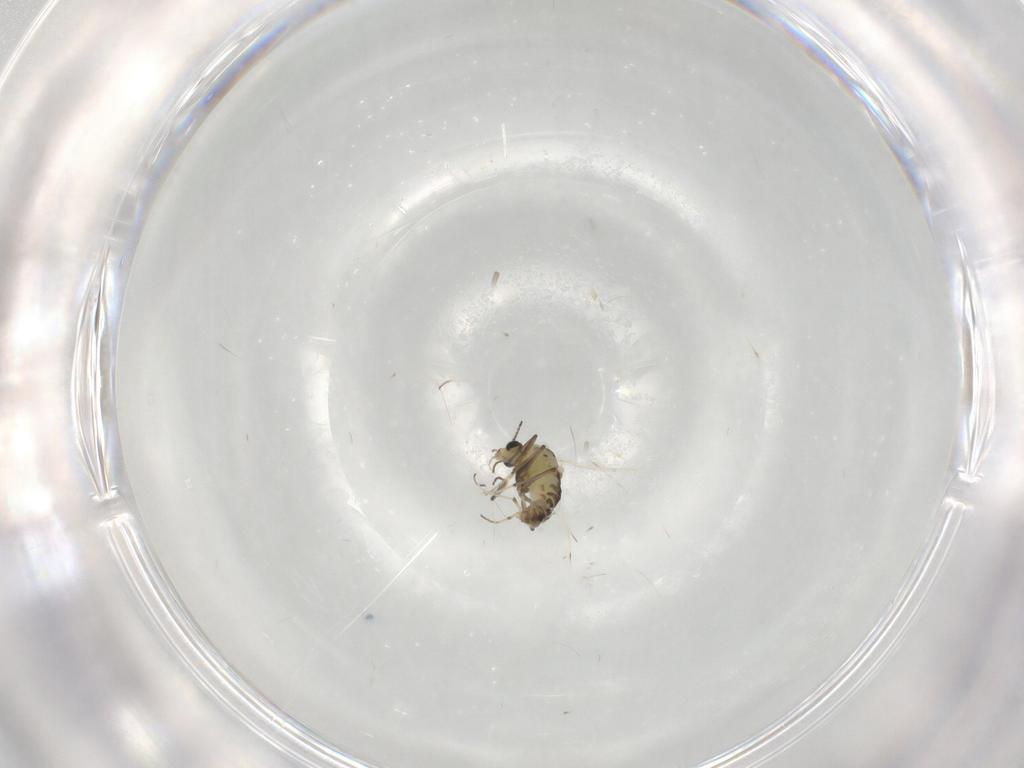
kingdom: Animalia
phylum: Arthropoda
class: Insecta
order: Diptera
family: Chironomidae
